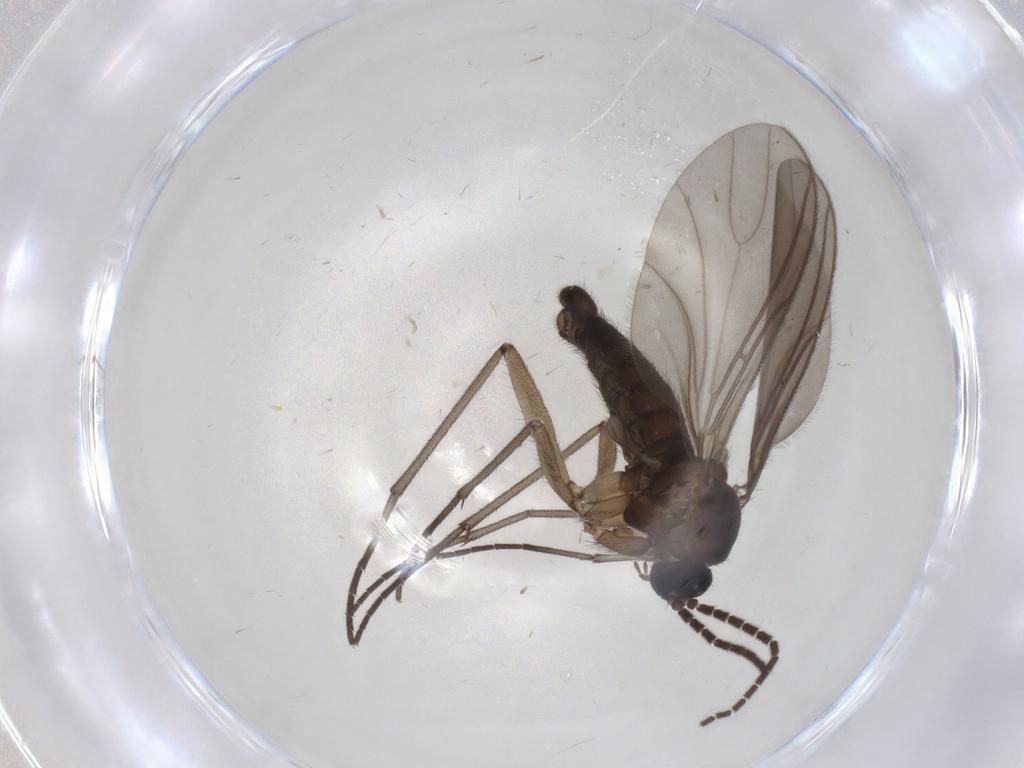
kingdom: Animalia
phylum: Arthropoda
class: Insecta
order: Diptera
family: Sciaridae
